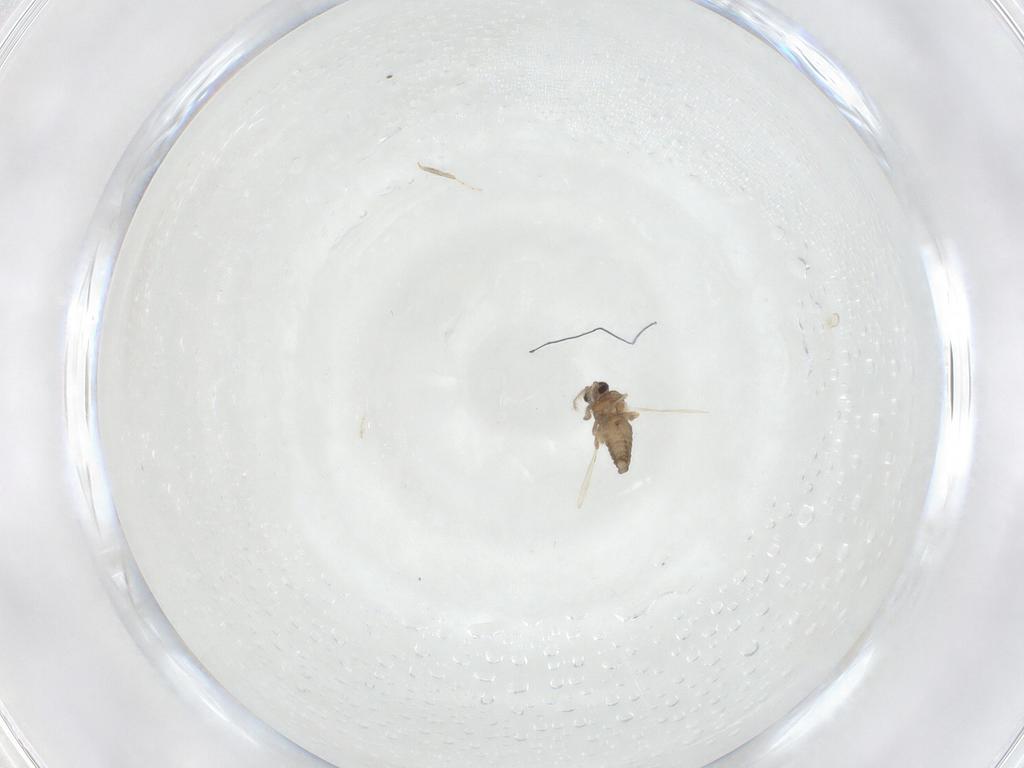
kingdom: Animalia
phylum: Arthropoda
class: Insecta
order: Diptera
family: Ceratopogonidae
